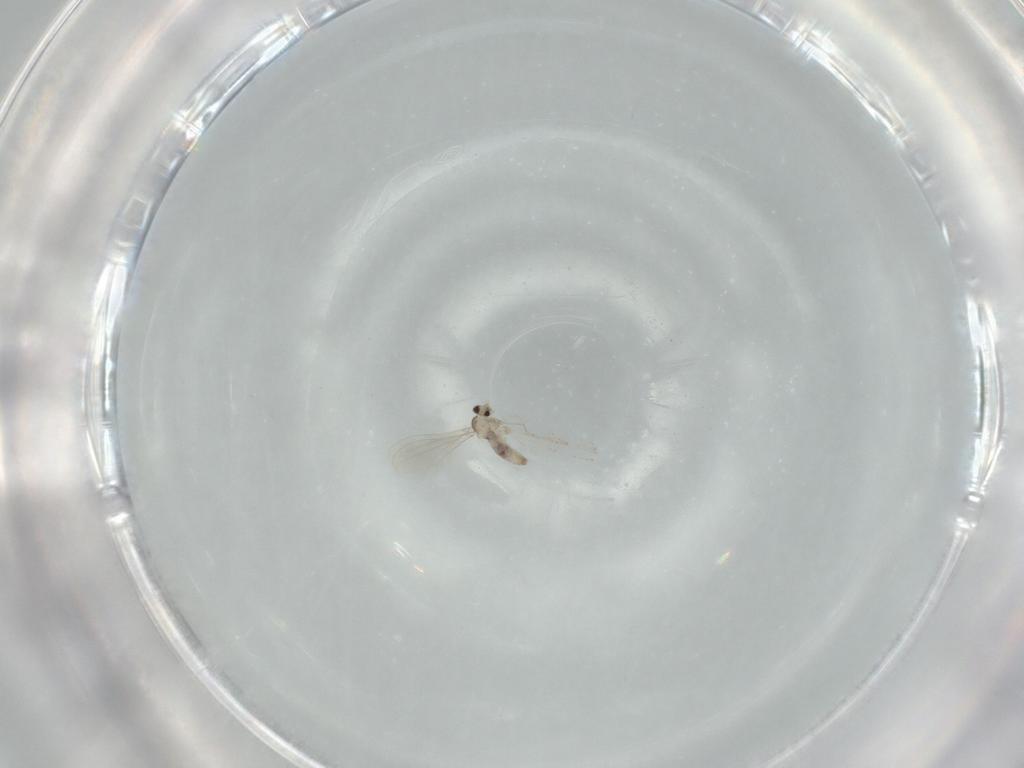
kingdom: Animalia
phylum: Arthropoda
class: Insecta
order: Diptera
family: Cecidomyiidae
